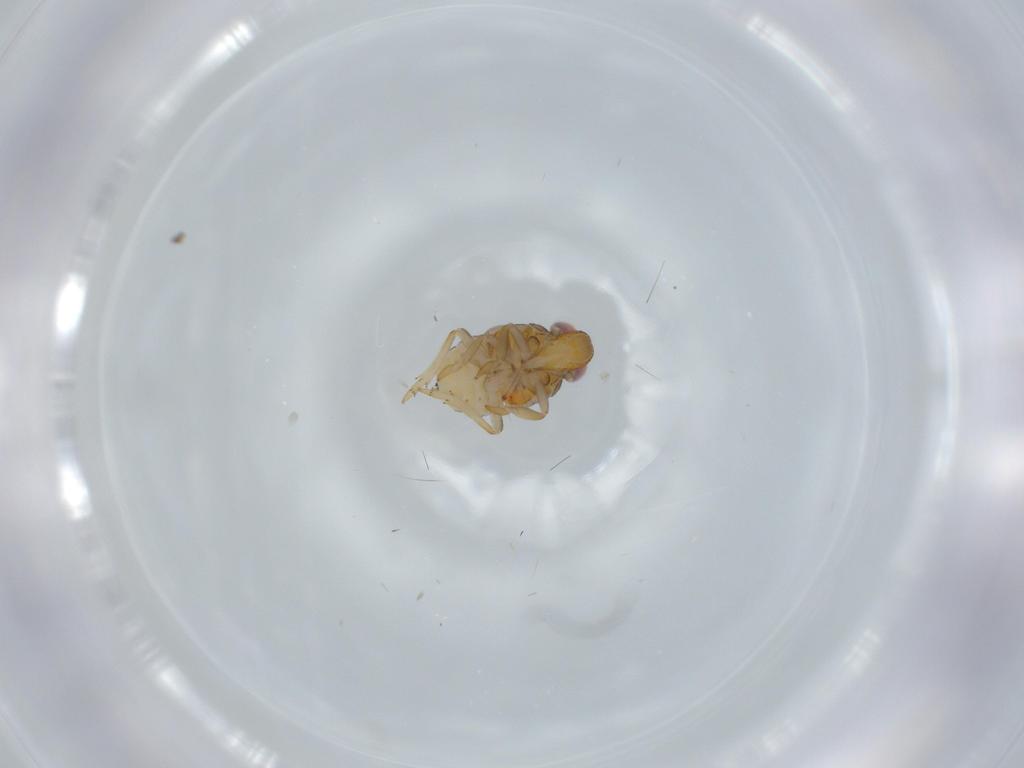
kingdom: Animalia
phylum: Arthropoda
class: Insecta
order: Hemiptera
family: Issidae
